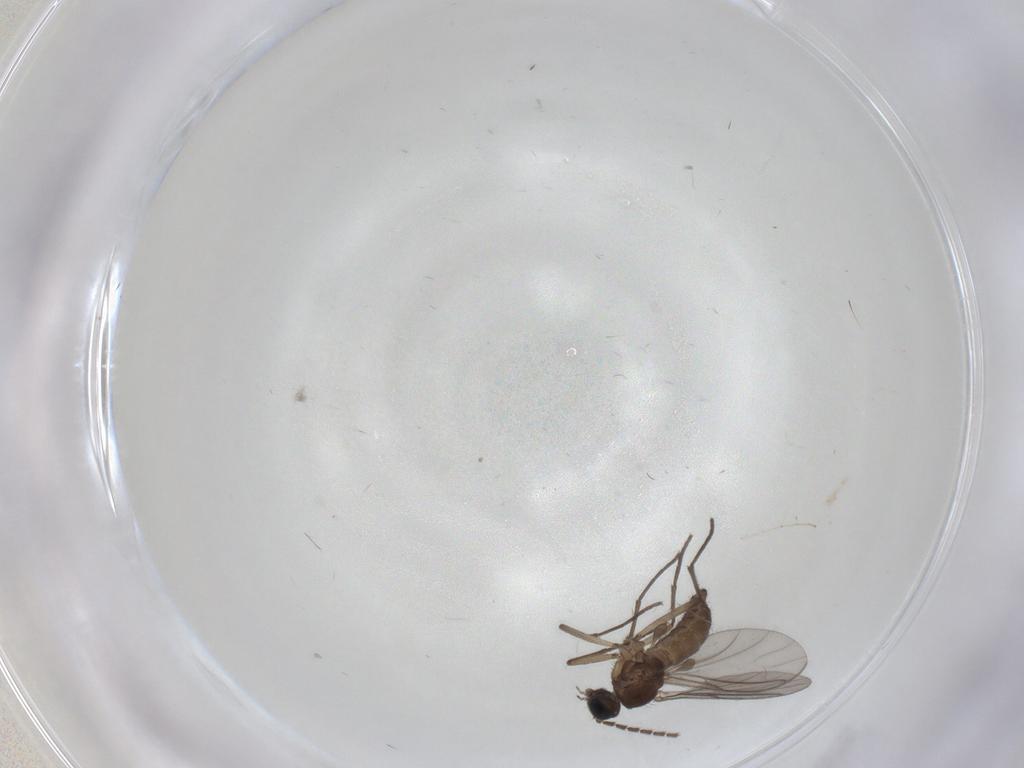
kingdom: Animalia
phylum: Arthropoda
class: Insecta
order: Diptera
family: Sciaridae
